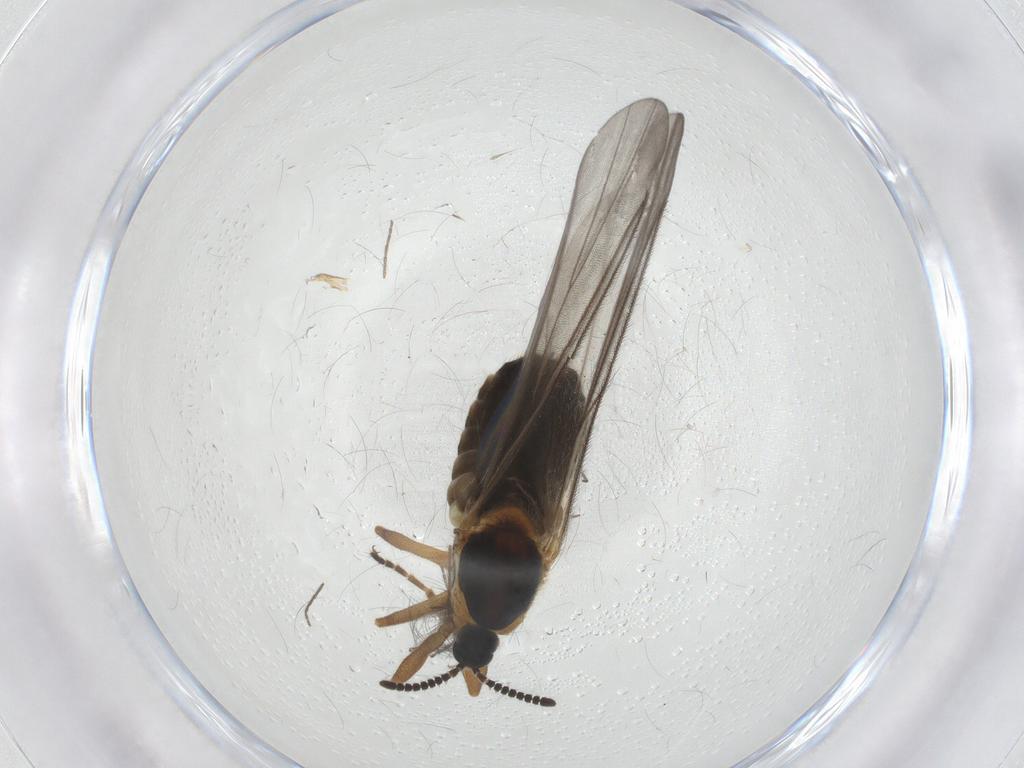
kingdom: Animalia
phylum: Arthropoda
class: Insecta
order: Diptera
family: Scatopsidae
